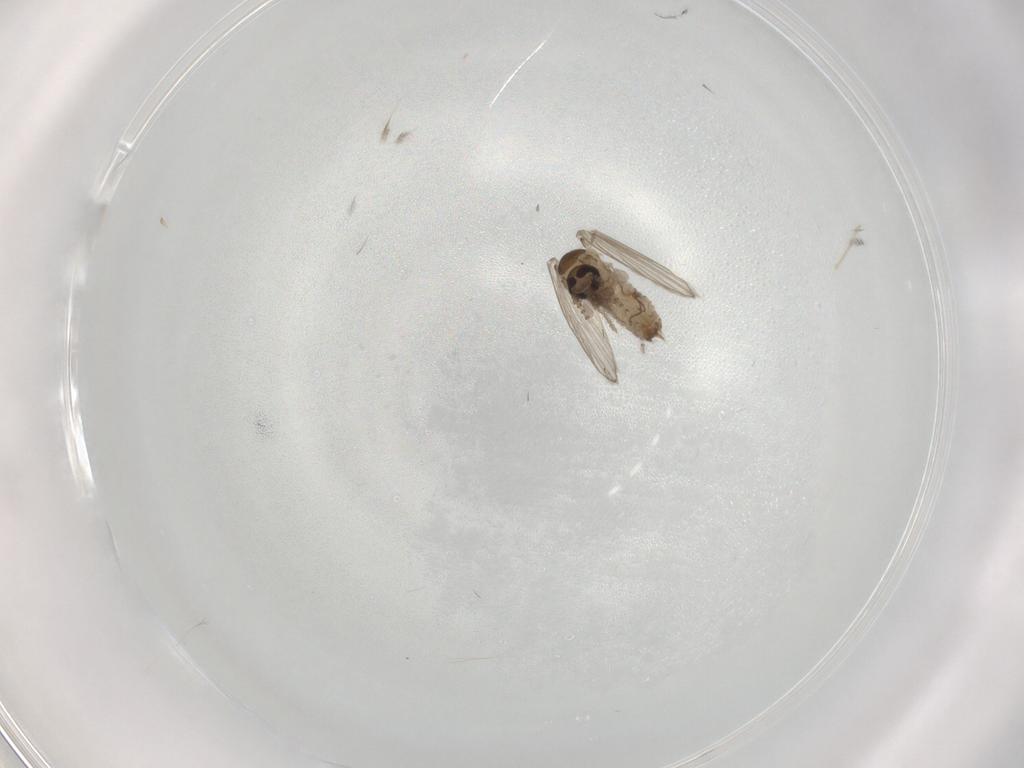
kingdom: Animalia
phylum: Arthropoda
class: Insecta
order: Diptera
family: Psychodidae
